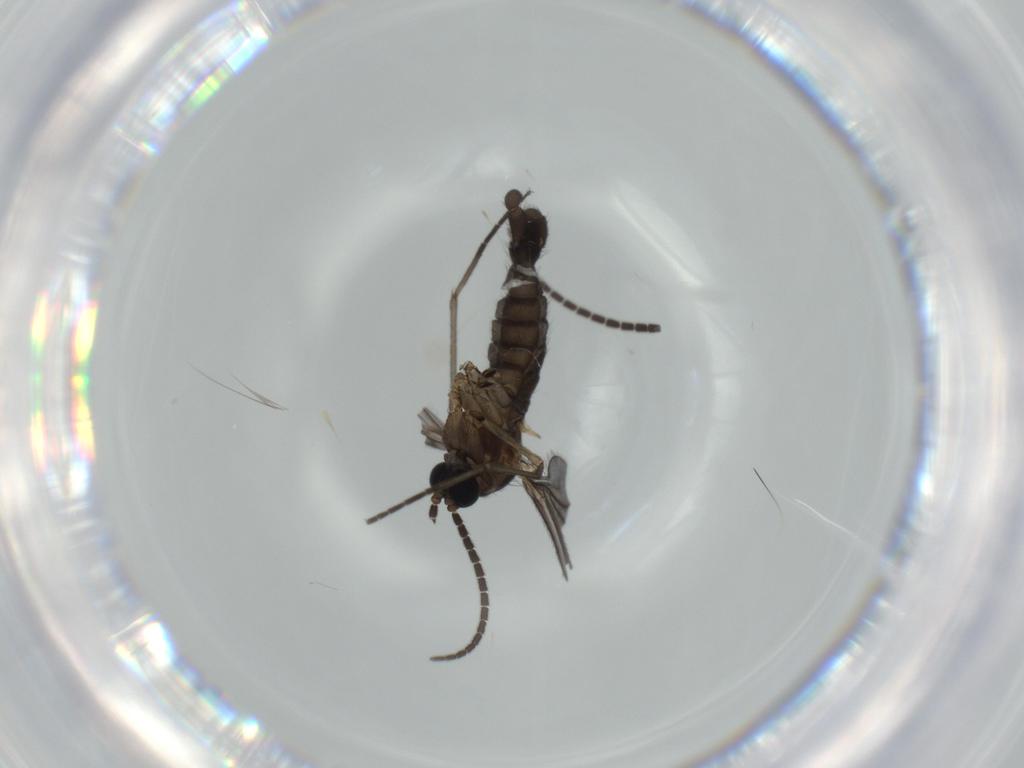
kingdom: Animalia
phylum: Arthropoda
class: Insecta
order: Diptera
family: Sciaridae
